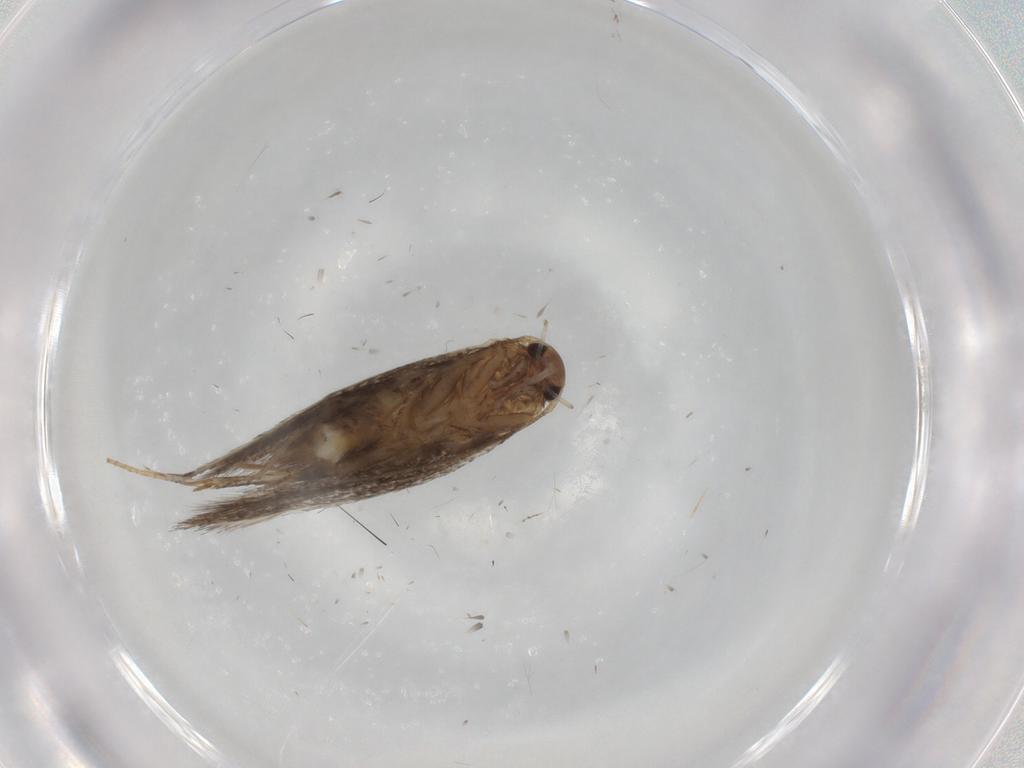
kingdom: Animalia
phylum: Arthropoda
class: Insecta
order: Lepidoptera
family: Elachistidae
